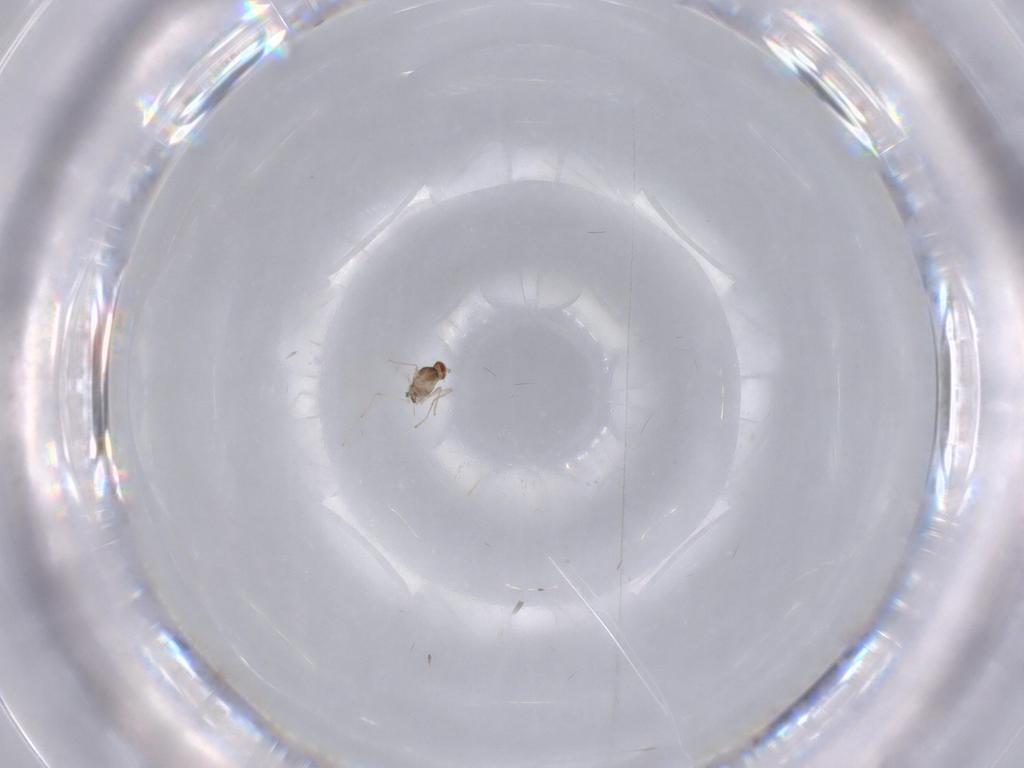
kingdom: Animalia
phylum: Arthropoda
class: Insecta
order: Diptera
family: Cecidomyiidae
